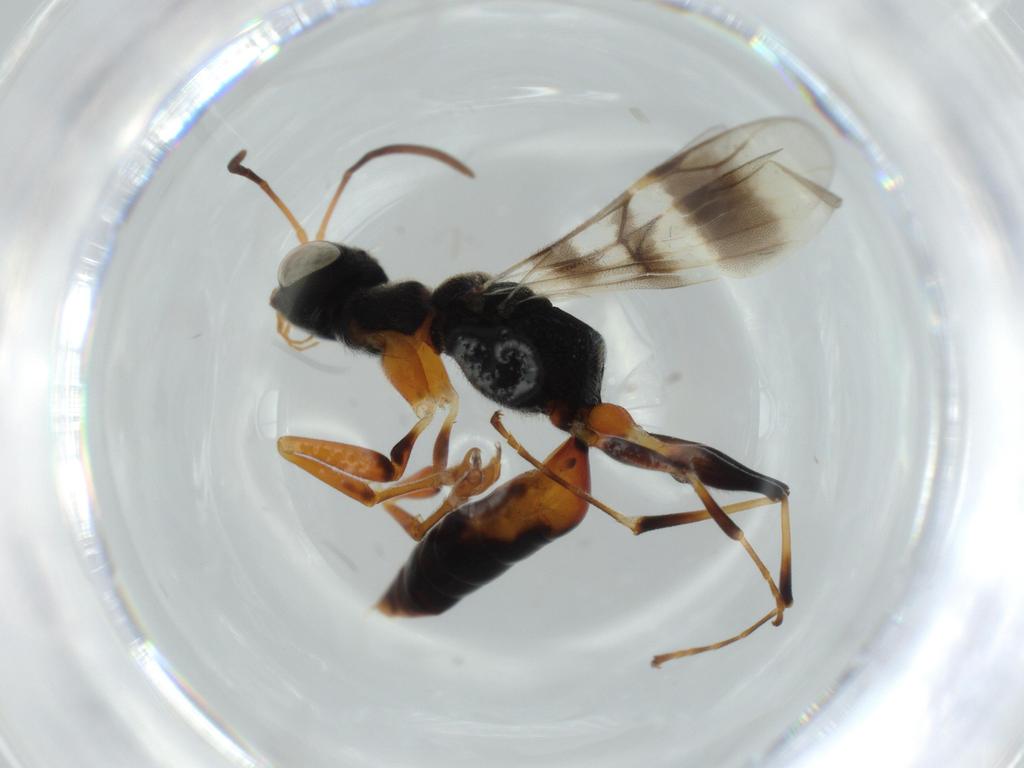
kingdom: Animalia
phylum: Arthropoda
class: Insecta
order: Hymenoptera
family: Dryinidae
